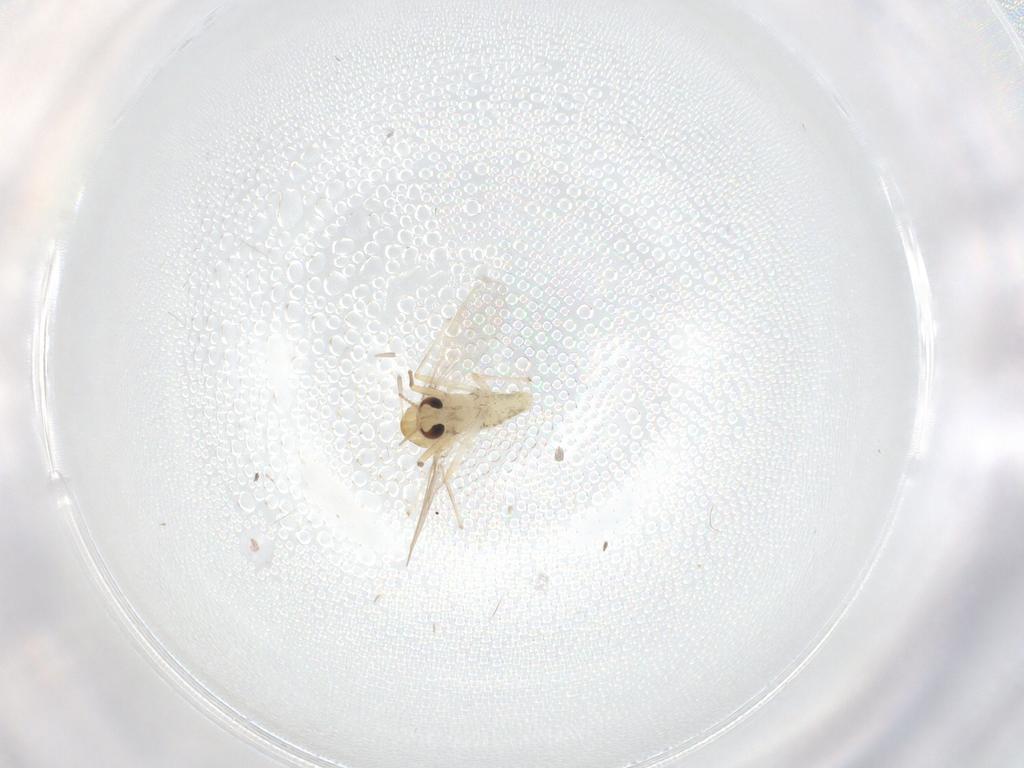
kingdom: Animalia
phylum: Arthropoda
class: Insecta
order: Diptera
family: Chironomidae
